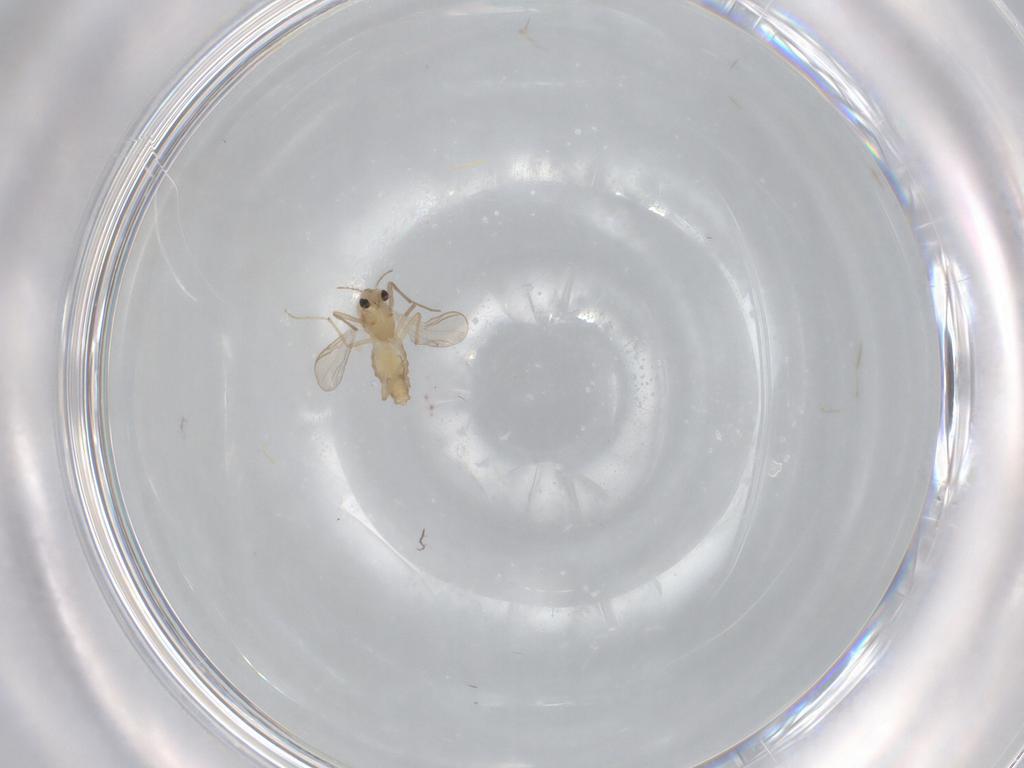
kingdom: Animalia
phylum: Arthropoda
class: Insecta
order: Diptera
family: Chironomidae
